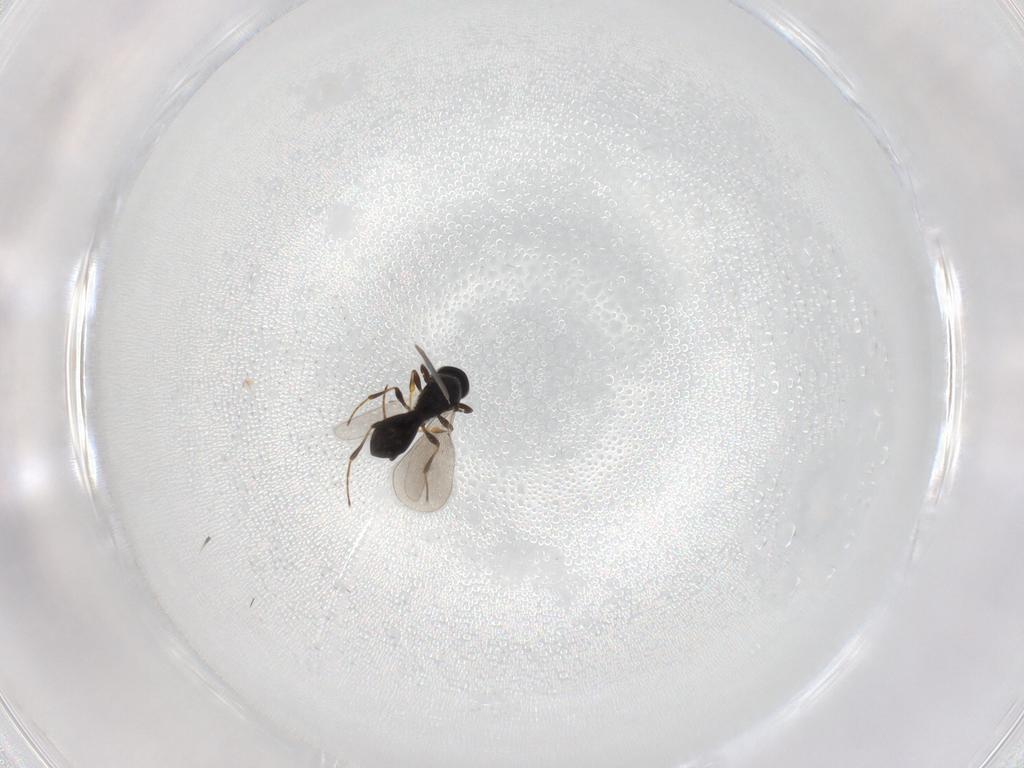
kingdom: Animalia
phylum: Arthropoda
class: Insecta
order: Hymenoptera
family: Platygastridae
